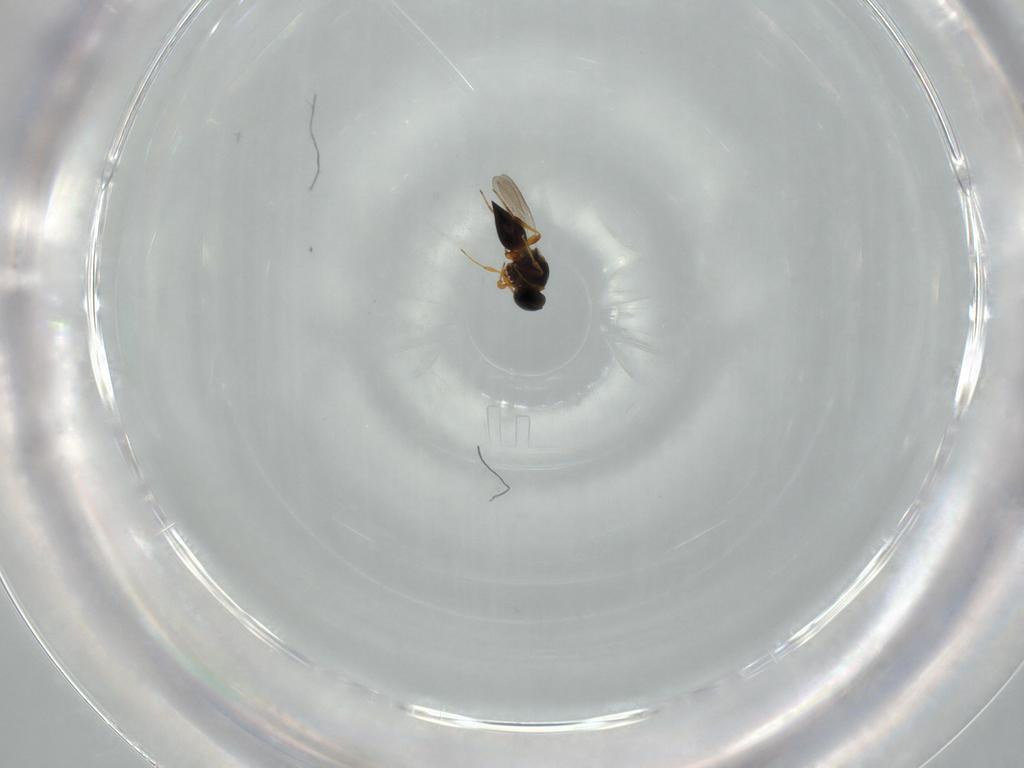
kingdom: Animalia
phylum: Arthropoda
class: Insecta
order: Hymenoptera
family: Platygastridae
